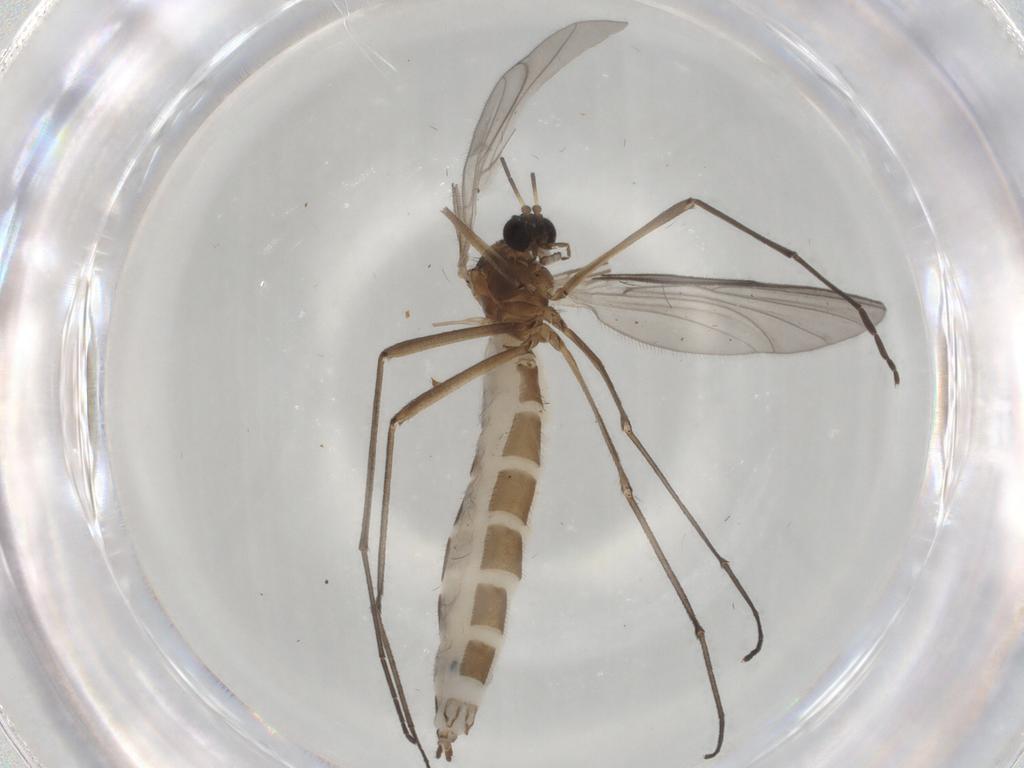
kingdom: Animalia
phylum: Arthropoda
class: Insecta
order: Diptera
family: Bolitophilidae
